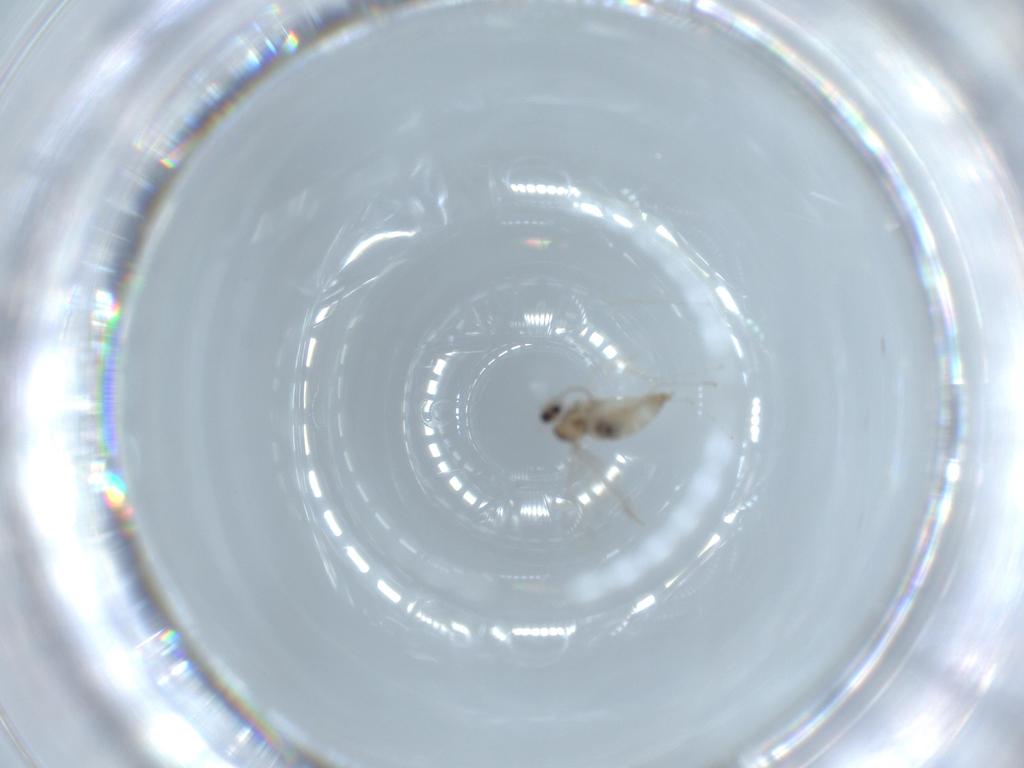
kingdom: Animalia
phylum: Arthropoda
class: Insecta
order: Diptera
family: Cecidomyiidae
